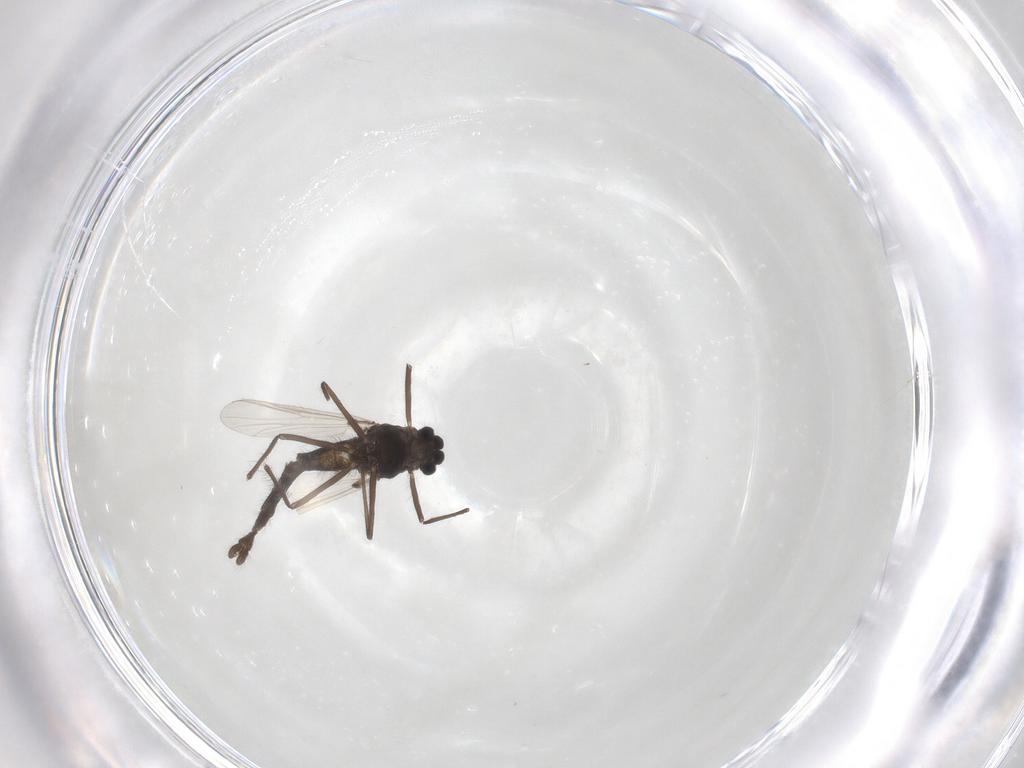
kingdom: Animalia
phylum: Arthropoda
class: Insecta
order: Diptera
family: Chironomidae
